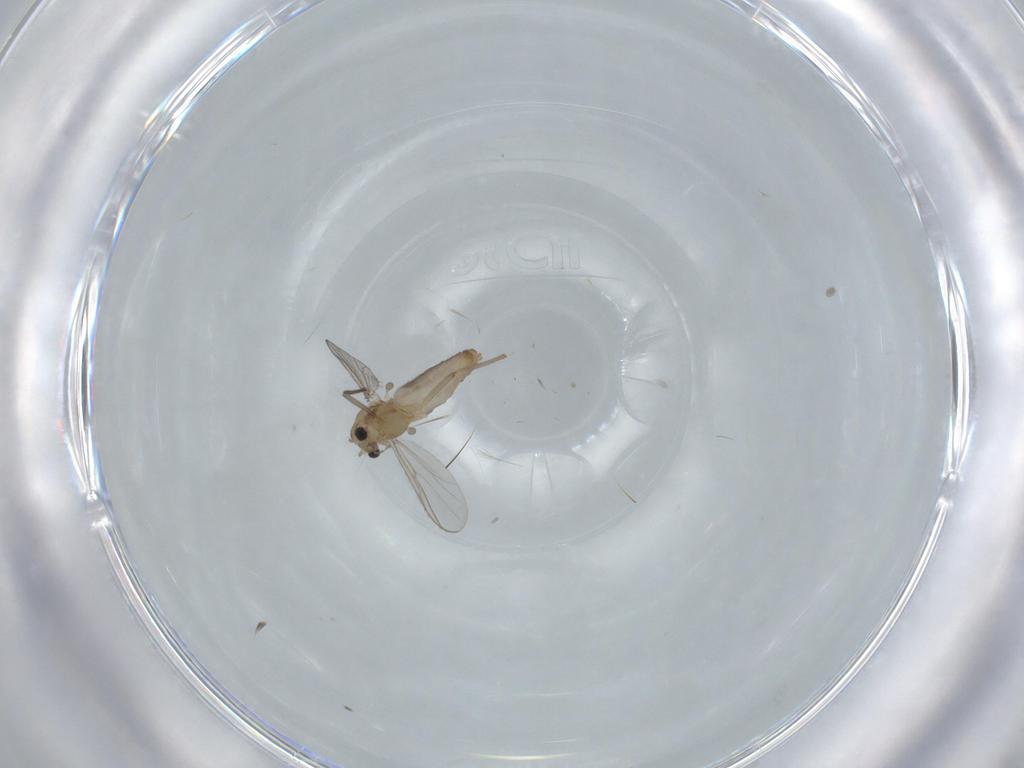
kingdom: Animalia
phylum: Arthropoda
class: Insecta
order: Diptera
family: Chironomidae
